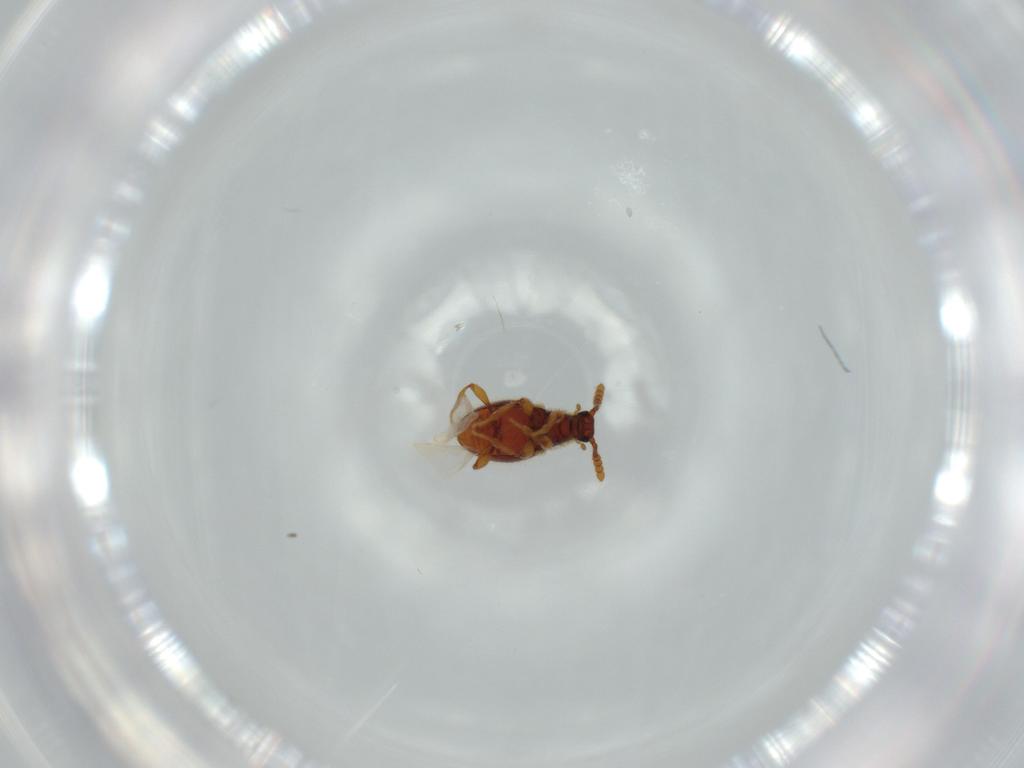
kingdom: Animalia
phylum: Arthropoda
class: Insecta
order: Coleoptera
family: Staphylinidae
